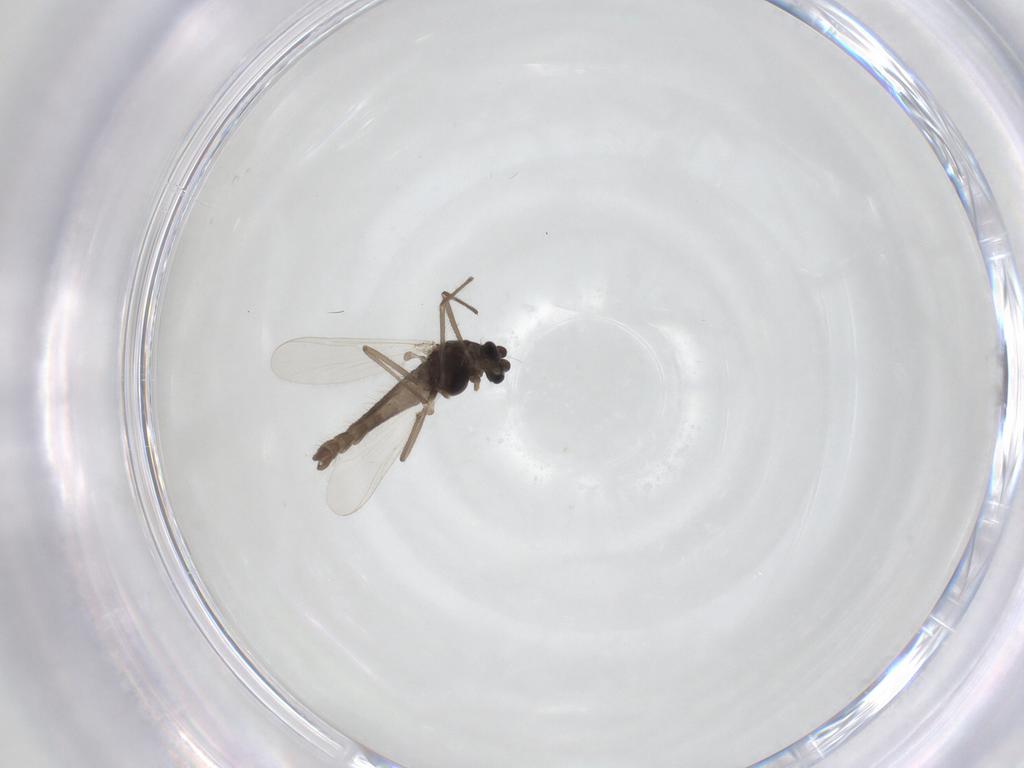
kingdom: Animalia
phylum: Arthropoda
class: Insecta
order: Diptera
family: Chironomidae
